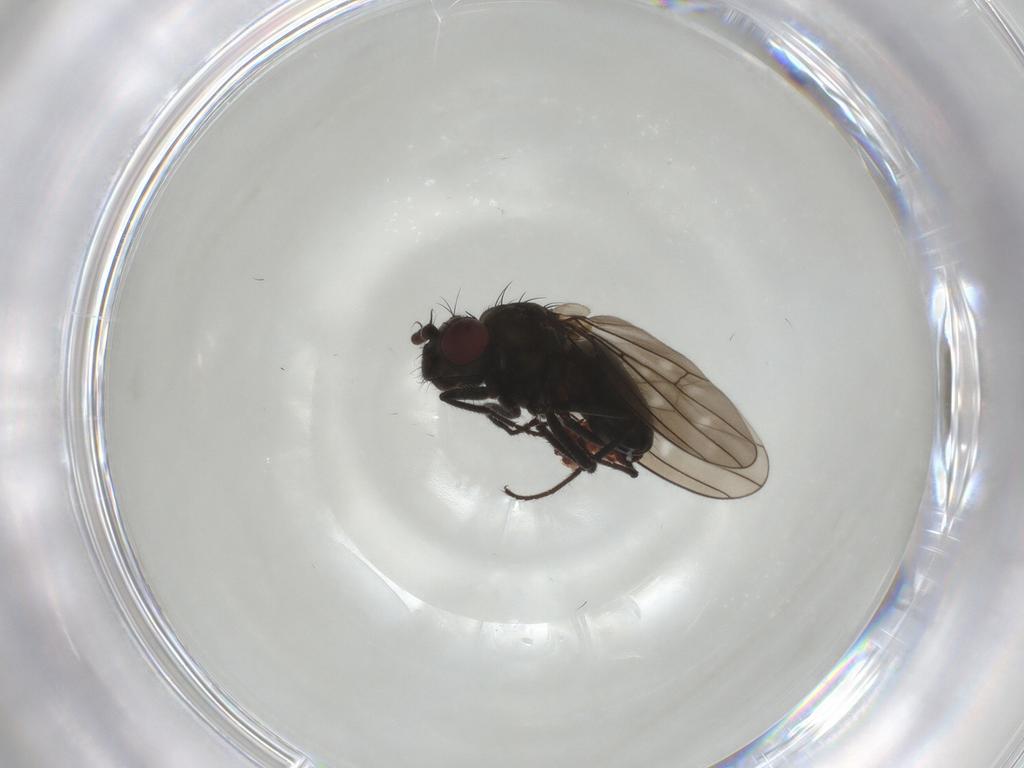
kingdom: Animalia
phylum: Arthropoda
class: Insecta
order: Diptera
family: Ephydridae
